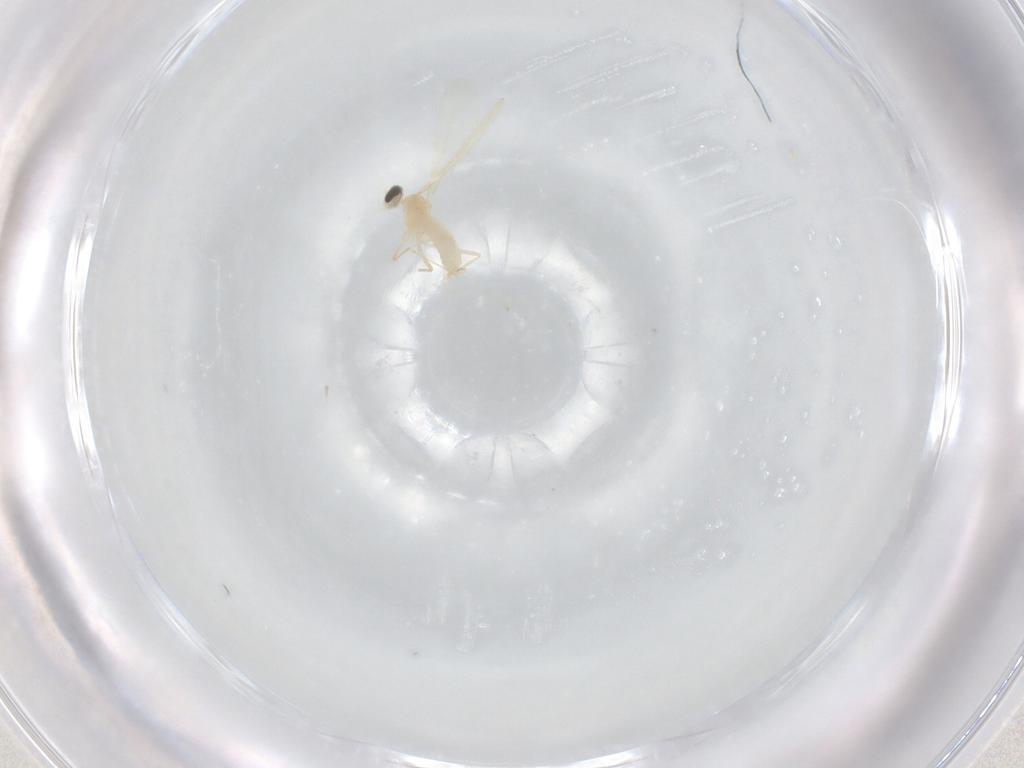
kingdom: Animalia
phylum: Arthropoda
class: Insecta
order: Diptera
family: Cecidomyiidae
